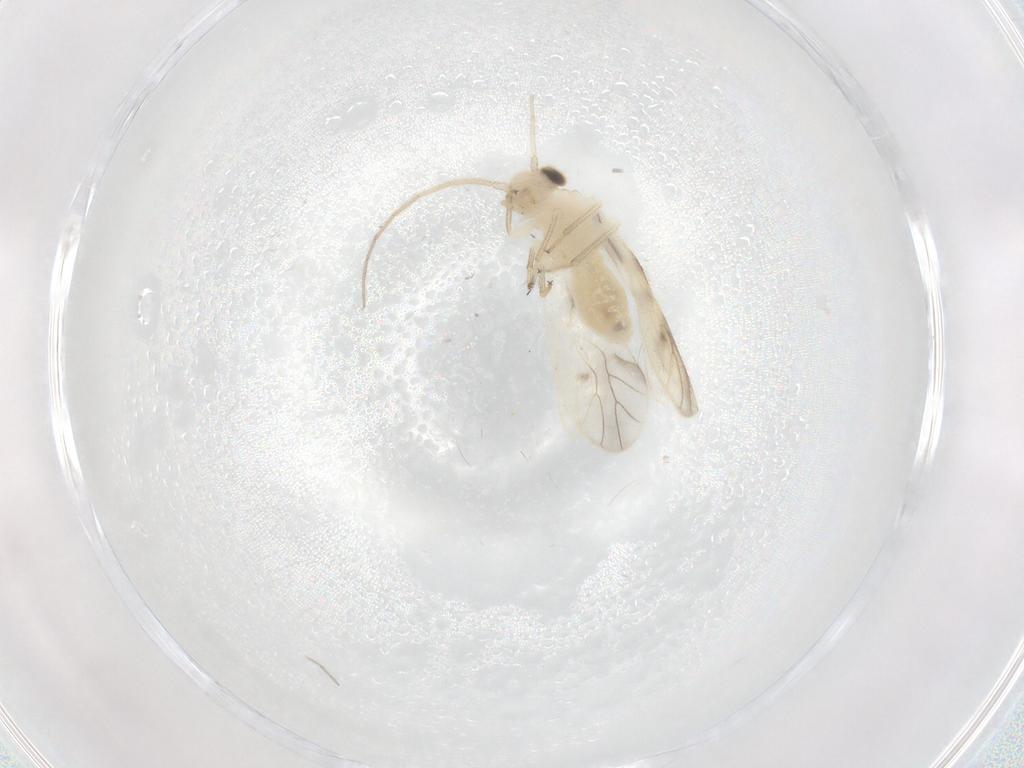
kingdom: Animalia
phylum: Arthropoda
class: Insecta
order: Psocodea
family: Caeciliusidae
